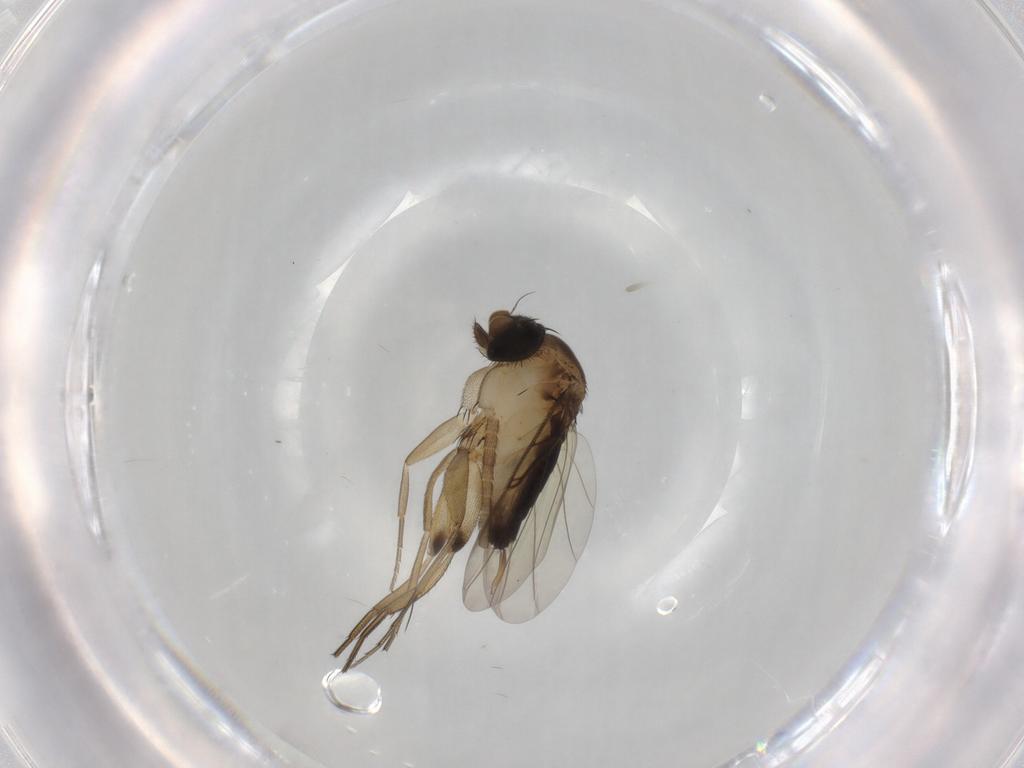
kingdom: Animalia
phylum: Arthropoda
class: Insecta
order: Diptera
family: Phoridae
